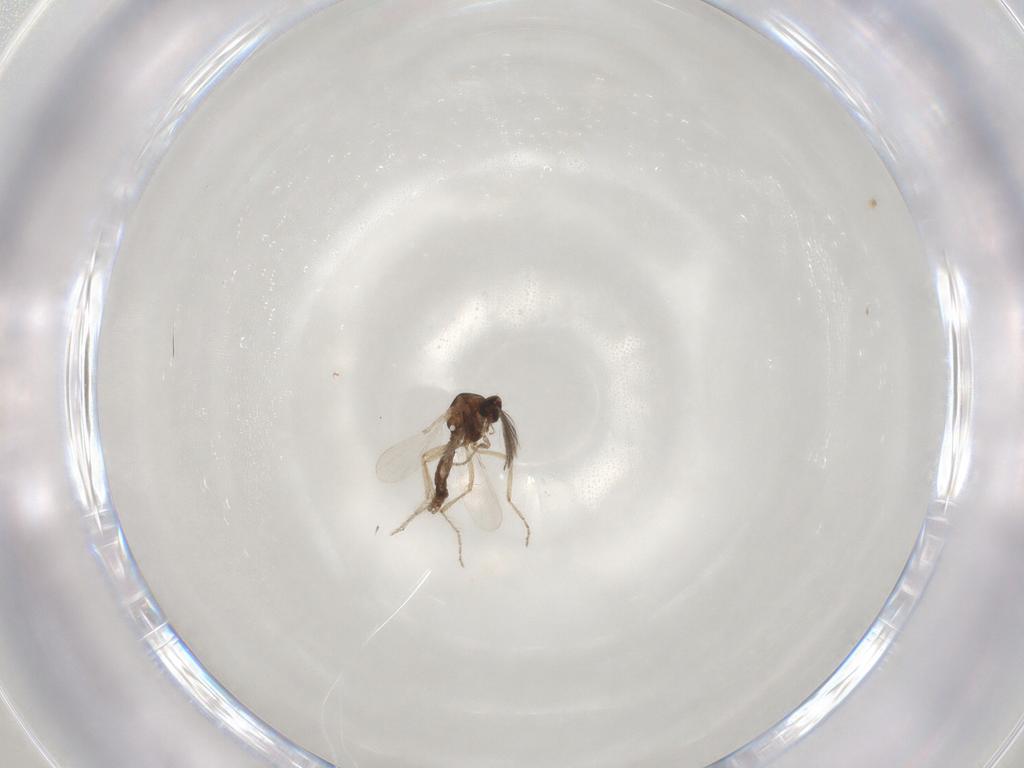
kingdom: Animalia
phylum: Arthropoda
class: Insecta
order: Diptera
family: Ceratopogonidae
